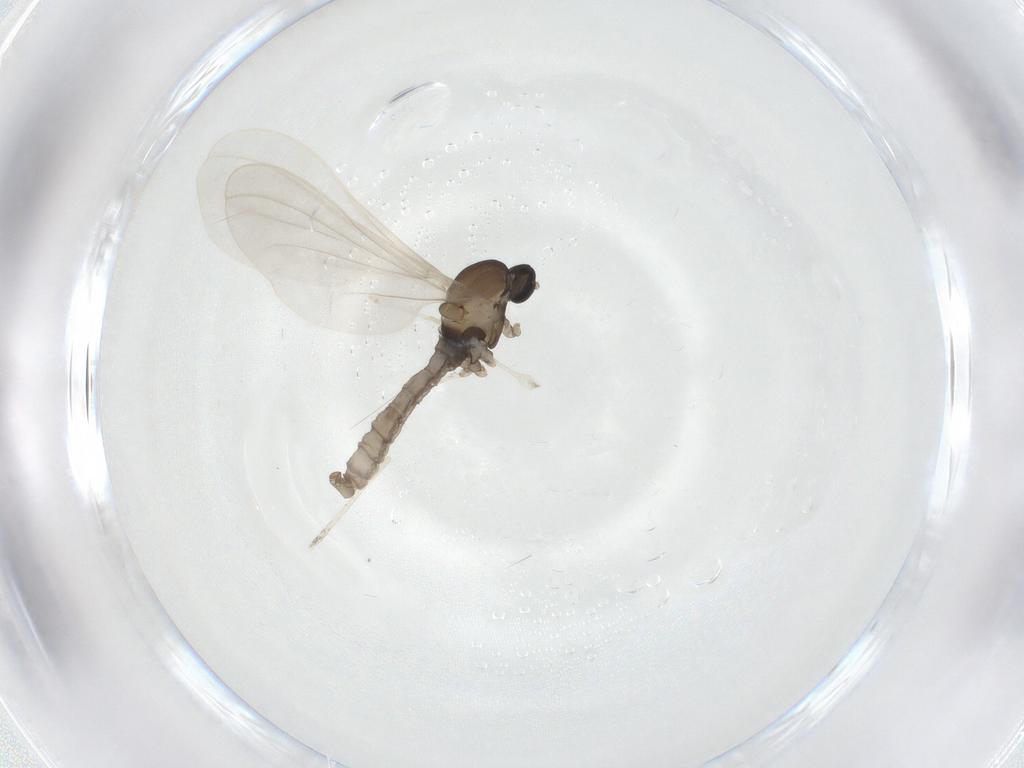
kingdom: Animalia
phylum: Arthropoda
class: Insecta
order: Diptera
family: Cecidomyiidae
